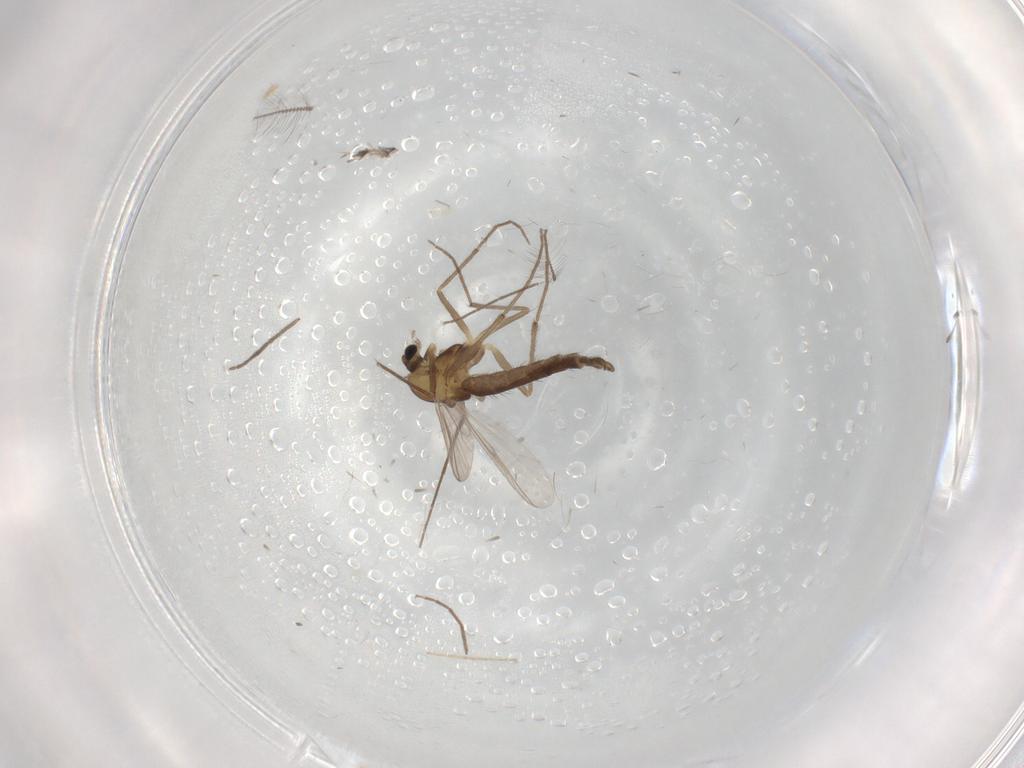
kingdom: Animalia
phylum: Arthropoda
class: Insecta
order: Diptera
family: Chironomidae
